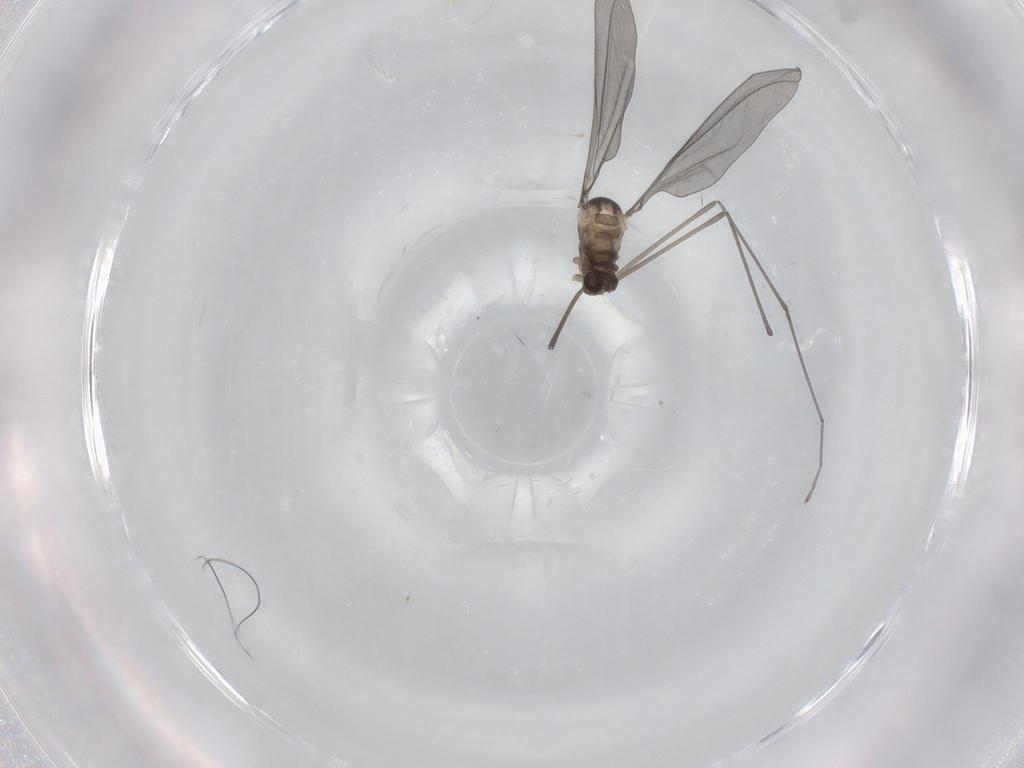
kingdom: Animalia
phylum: Arthropoda
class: Insecta
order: Diptera
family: Cecidomyiidae
